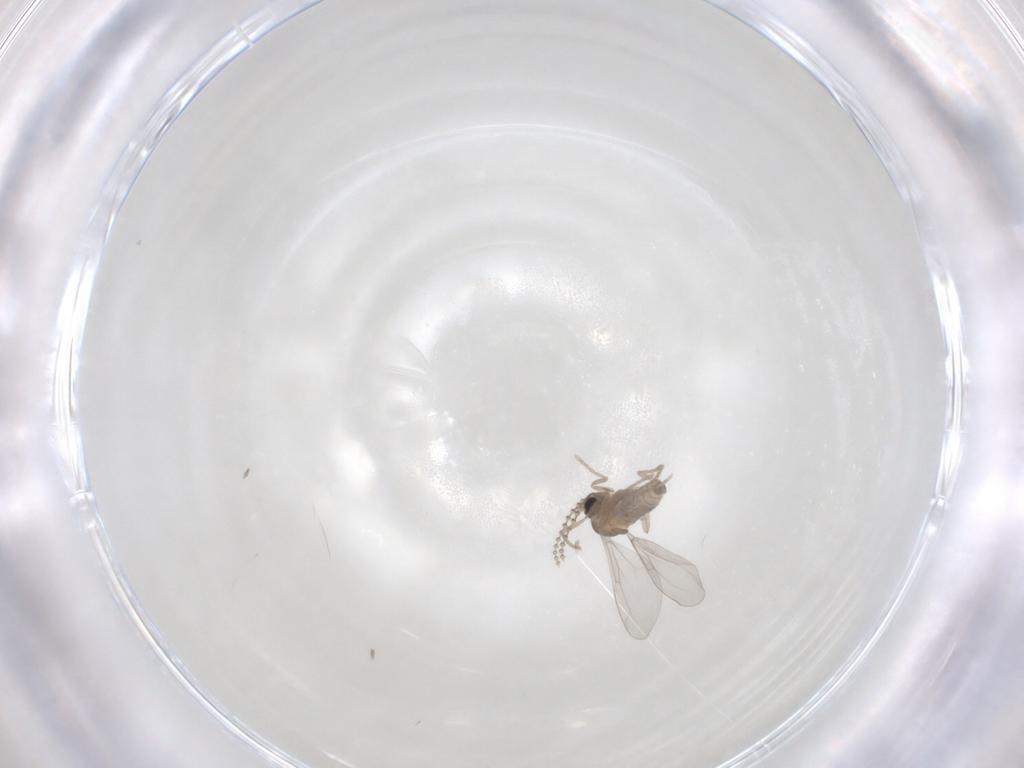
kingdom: Animalia
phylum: Arthropoda
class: Insecta
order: Diptera
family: Cecidomyiidae
